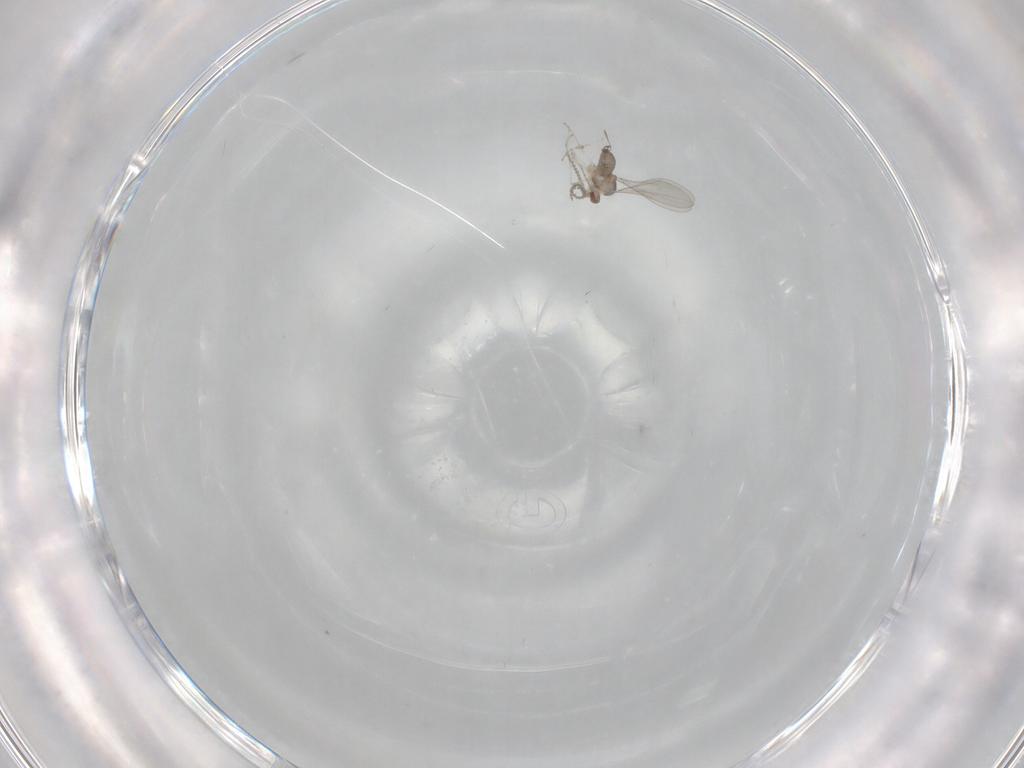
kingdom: Animalia
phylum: Arthropoda
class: Insecta
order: Diptera
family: Cecidomyiidae
